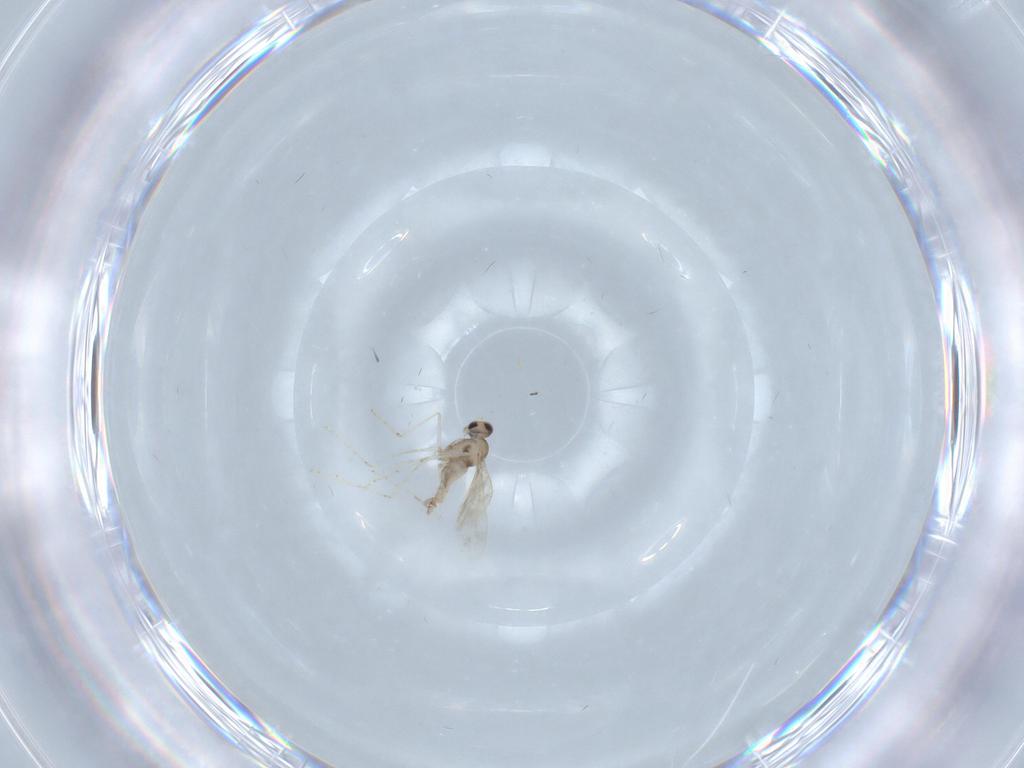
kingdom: Animalia
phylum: Arthropoda
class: Insecta
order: Diptera
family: Cecidomyiidae
